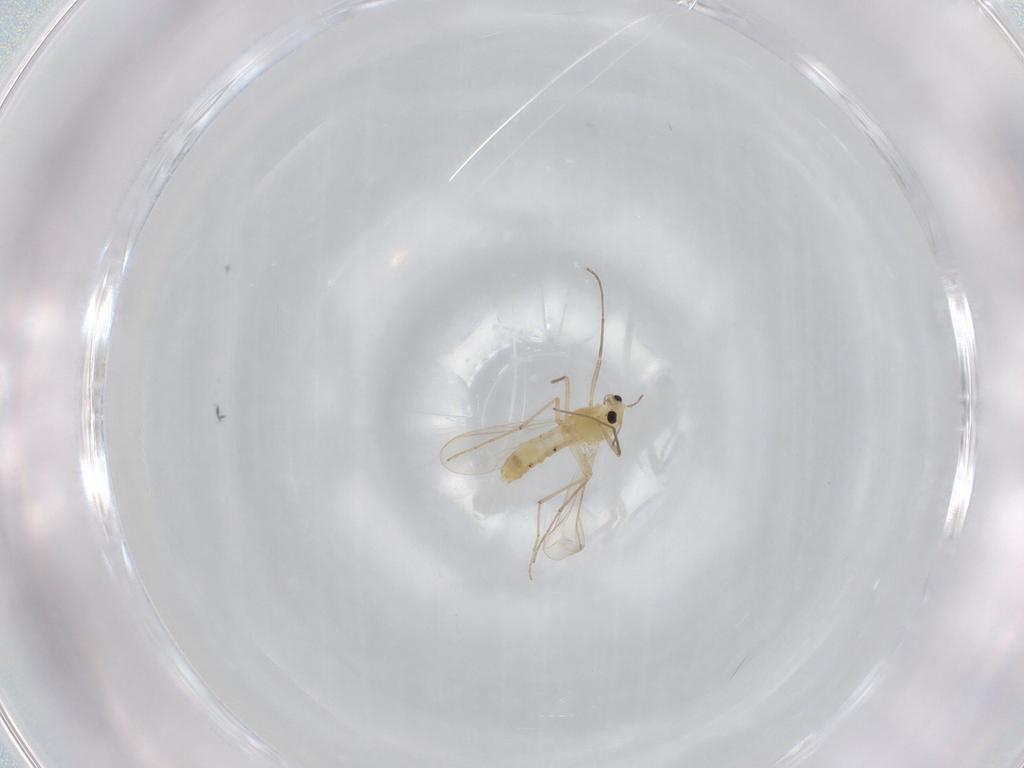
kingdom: Animalia
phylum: Arthropoda
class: Insecta
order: Diptera
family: Chironomidae
